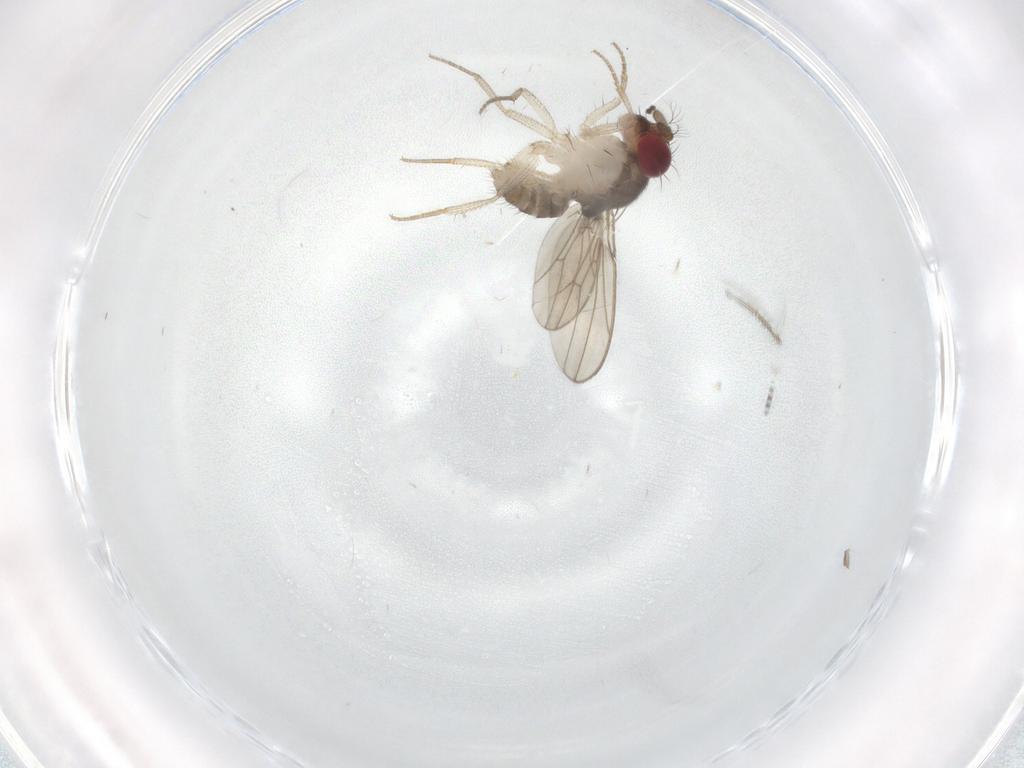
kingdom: Animalia
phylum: Arthropoda
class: Insecta
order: Diptera
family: Drosophilidae
